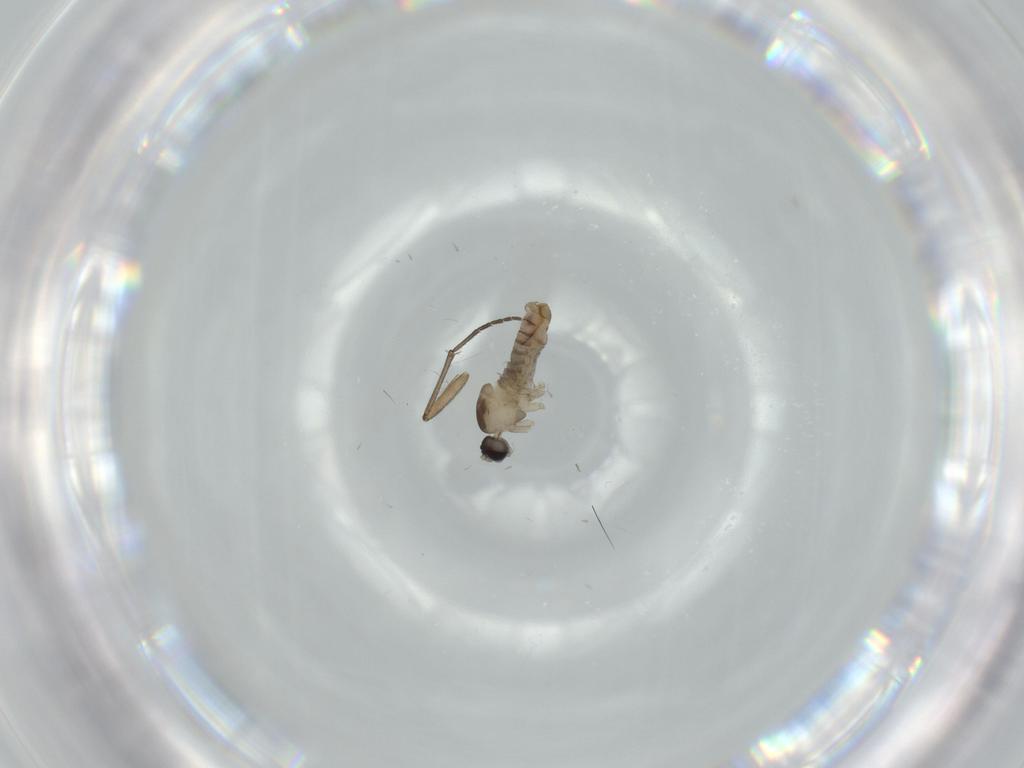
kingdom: Animalia
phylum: Arthropoda
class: Insecta
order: Diptera
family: Cecidomyiidae
